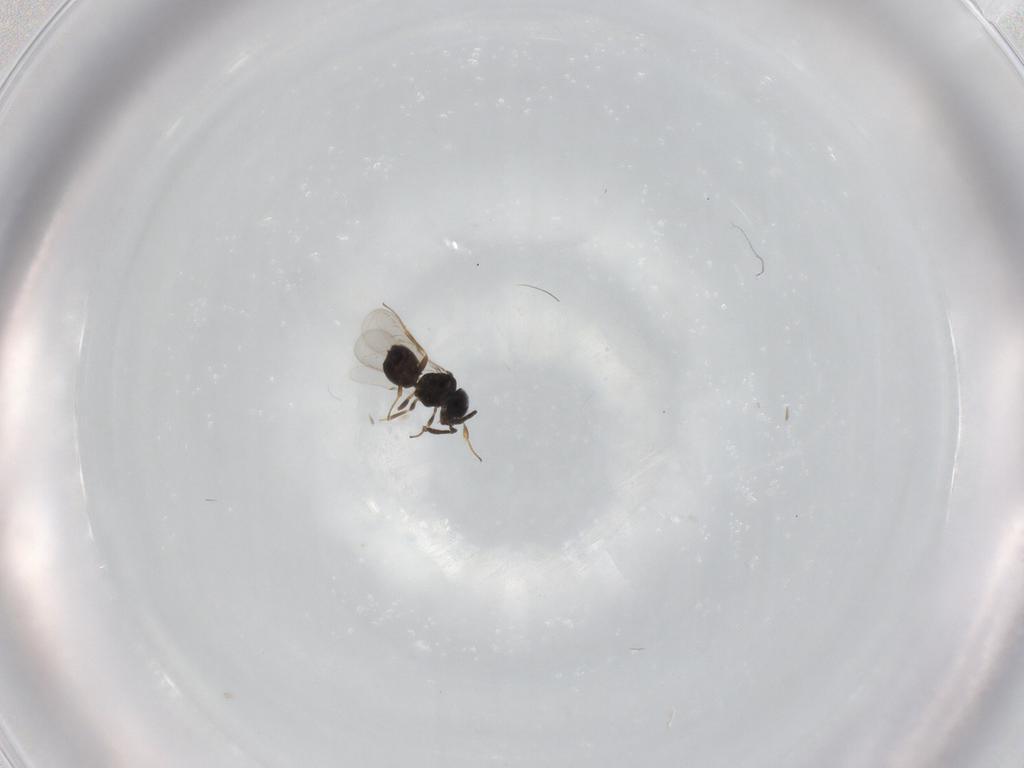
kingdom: Animalia
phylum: Arthropoda
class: Insecta
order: Hymenoptera
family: Scelionidae
